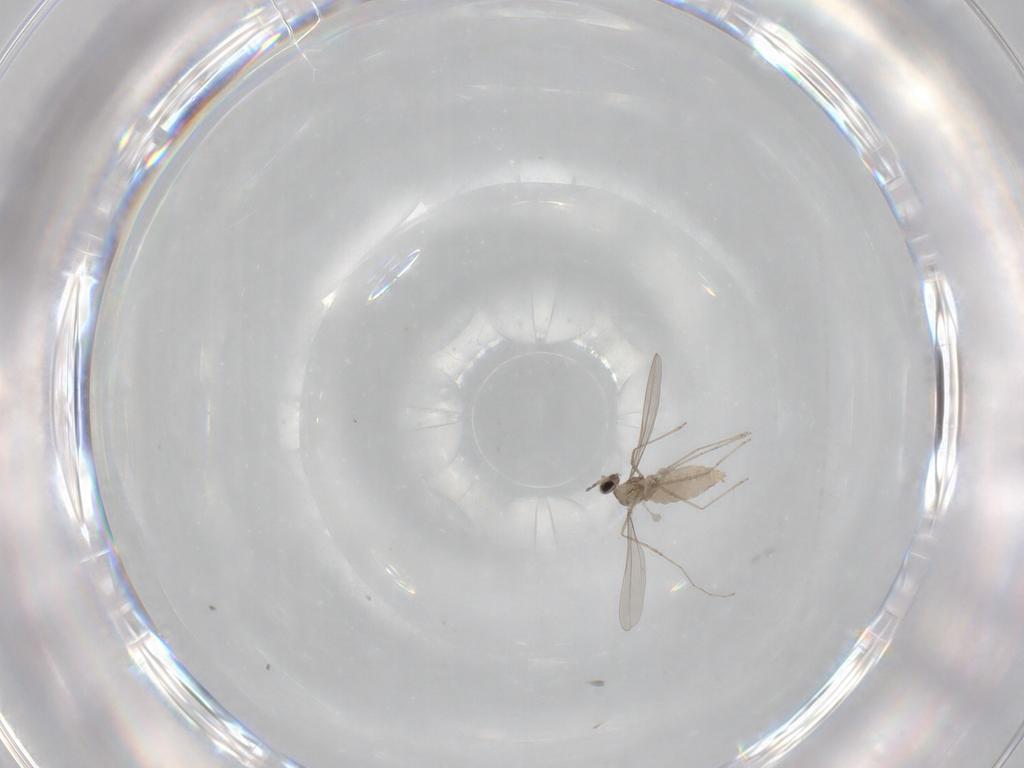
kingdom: Animalia
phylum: Arthropoda
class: Insecta
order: Diptera
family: Cecidomyiidae
